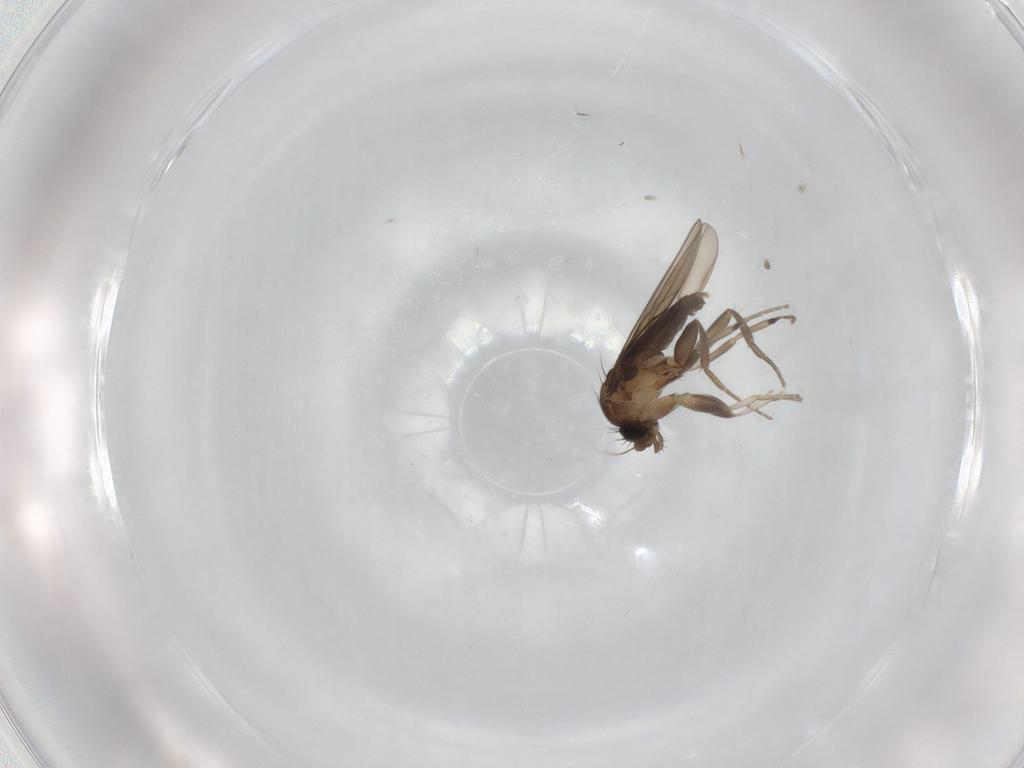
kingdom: Animalia
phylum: Arthropoda
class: Insecta
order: Diptera
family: Phoridae
